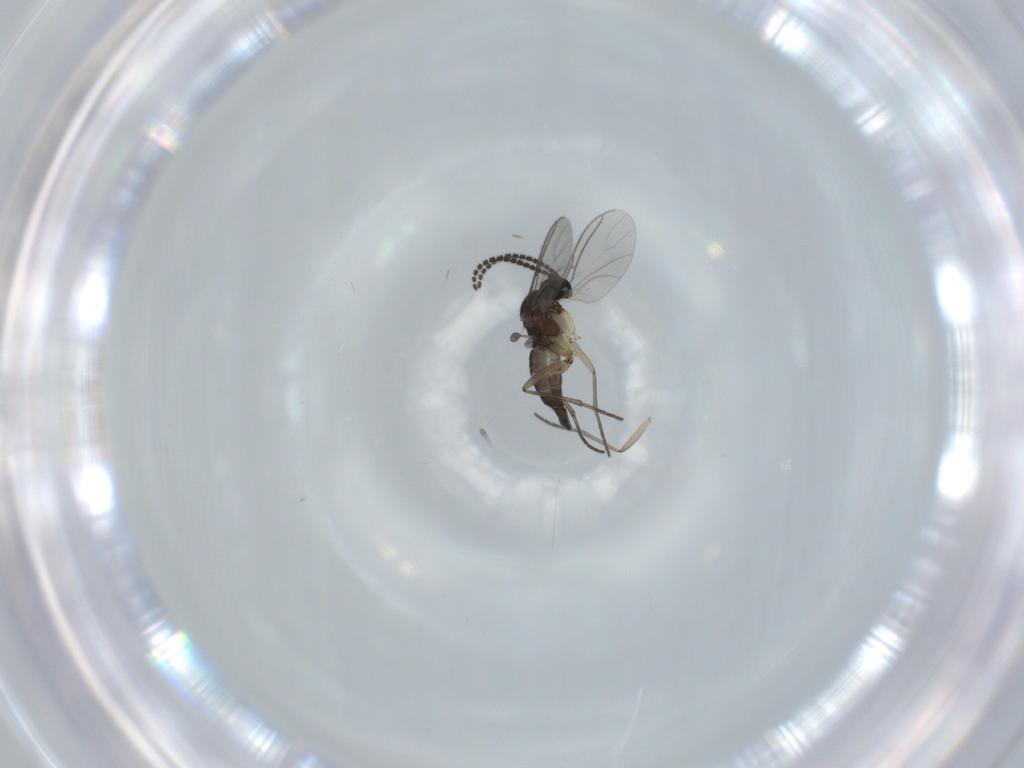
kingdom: Animalia
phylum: Arthropoda
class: Insecta
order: Diptera
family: Sciaridae
